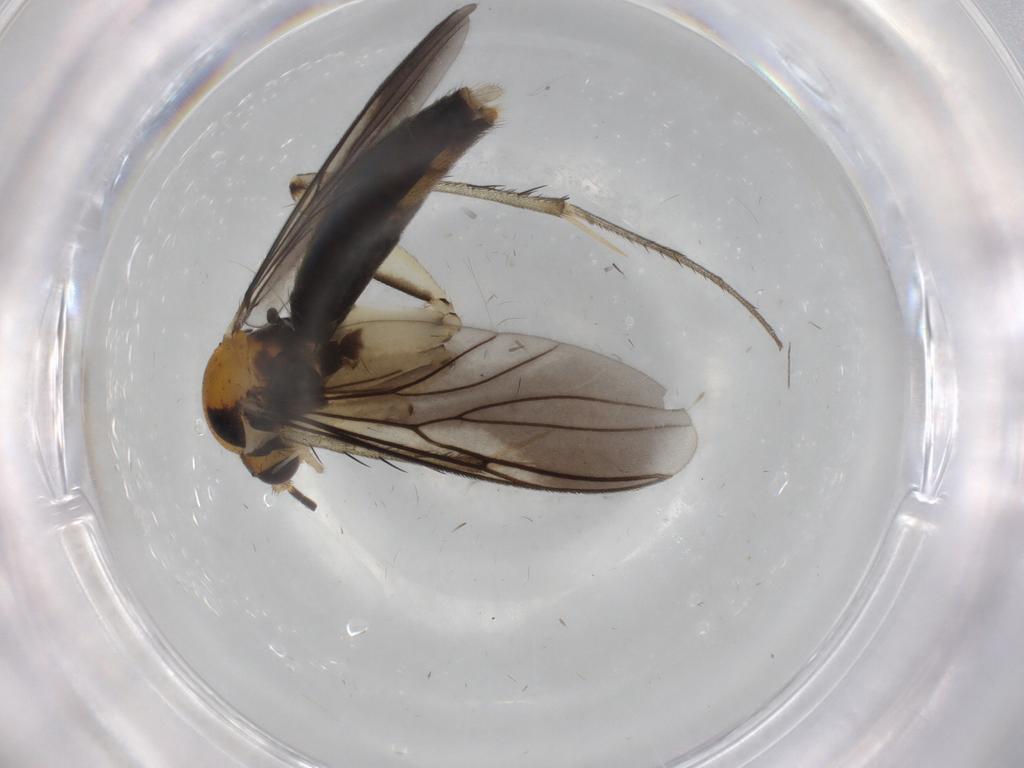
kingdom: Animalia
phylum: Arthropoda
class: Insecta
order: Diptera
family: Mycetophilidae
